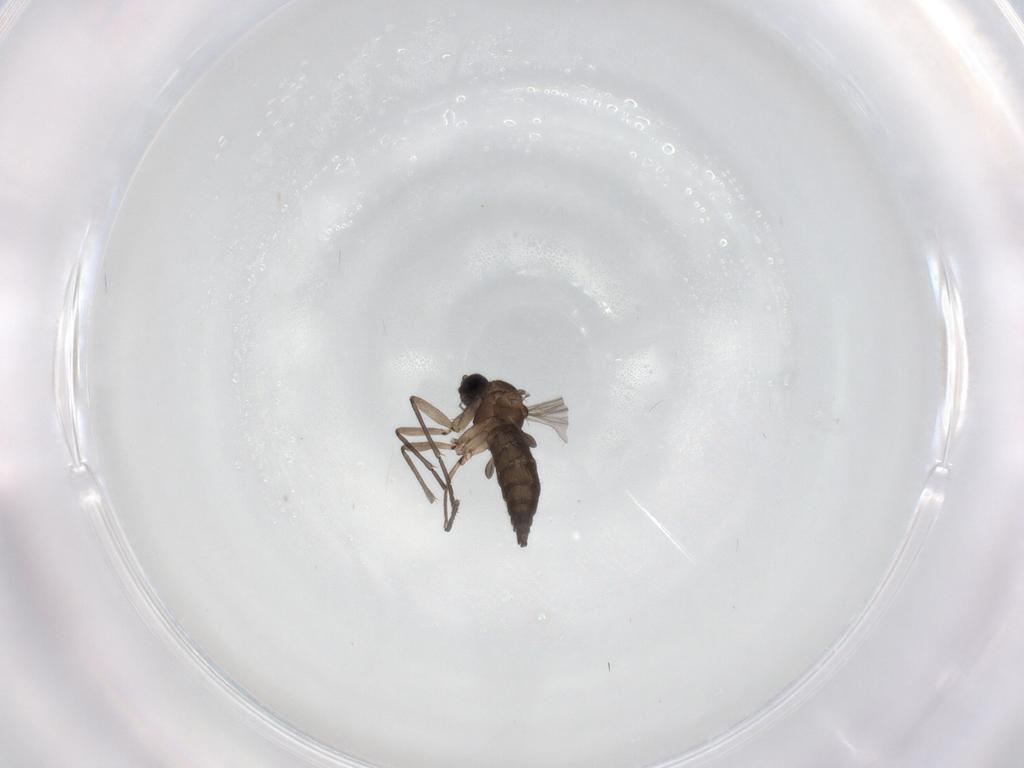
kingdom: Animalia
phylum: Arthropoda
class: Insecta
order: Diptera
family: Sciaridae
